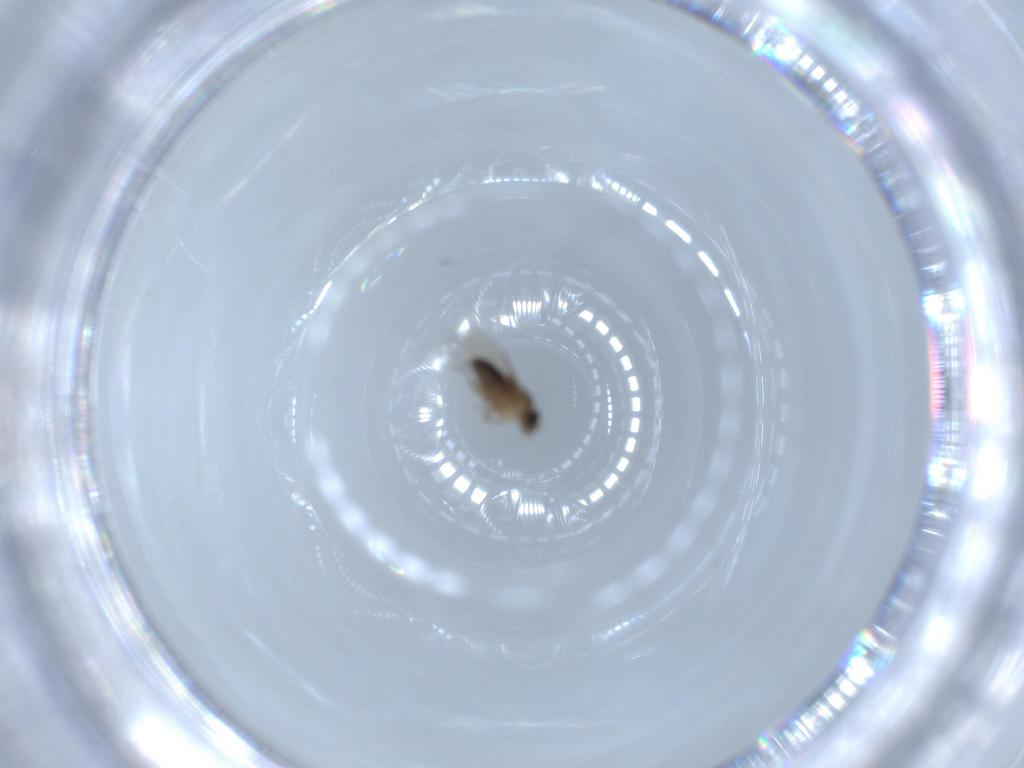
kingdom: Animalia
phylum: Arthropoda
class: Insecta
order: Diptera
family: Phoridae
